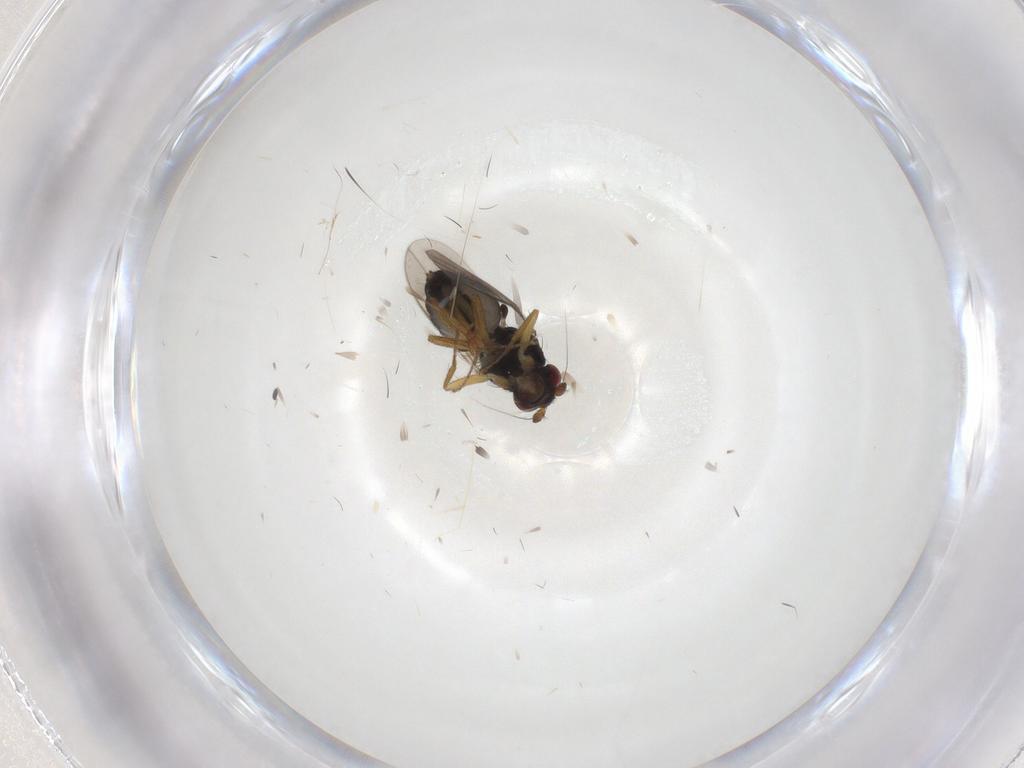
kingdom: Animalia
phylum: Arthropoda
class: Insecta
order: Diptera
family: Sphaeroceridae
